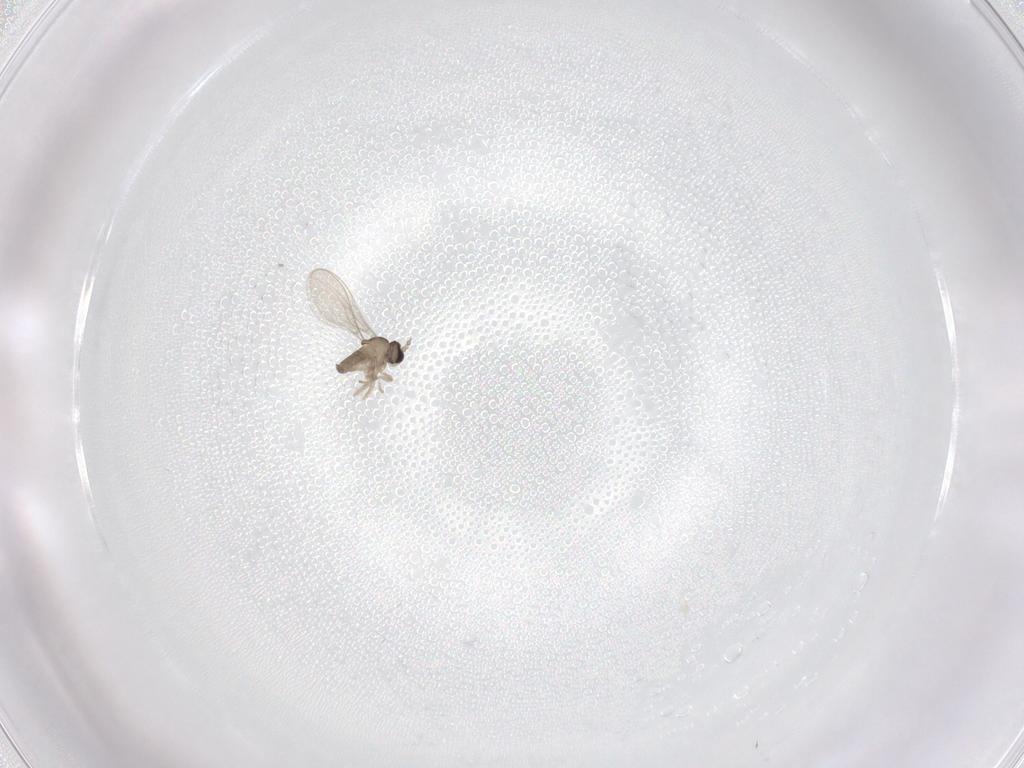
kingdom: Animalia
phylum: Arthropoda
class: Insecta
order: Diptera
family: Cecidomyiidae
